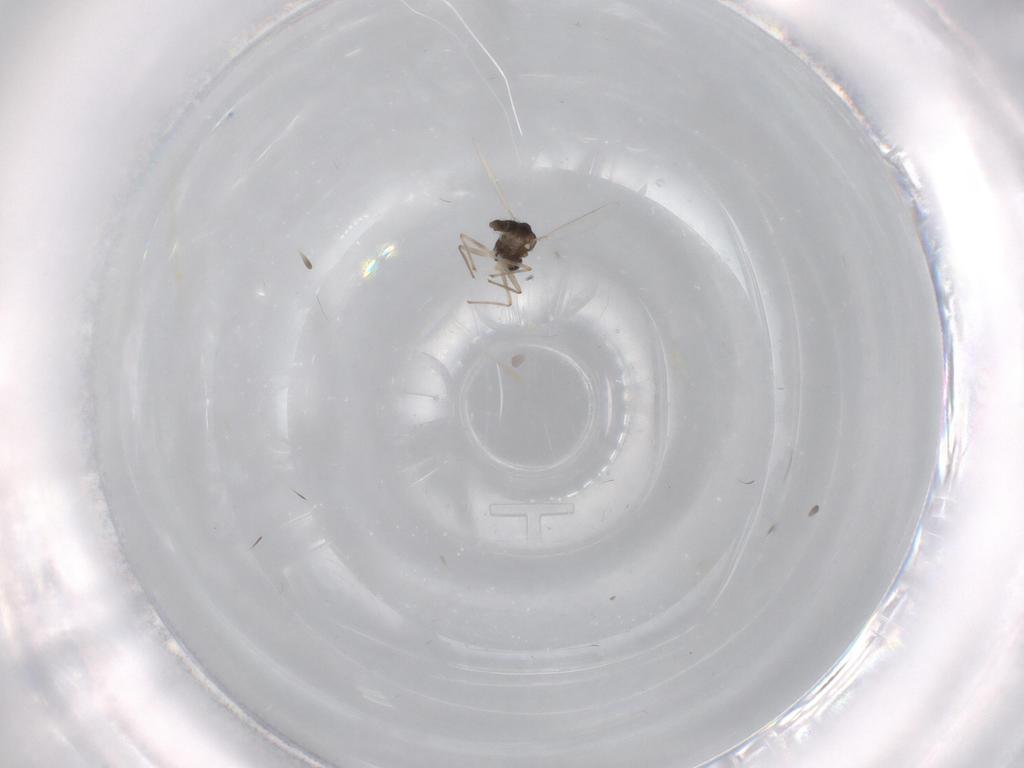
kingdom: Animalia
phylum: Arthropoda
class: Insecta
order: Diptera
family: Chironomidae
